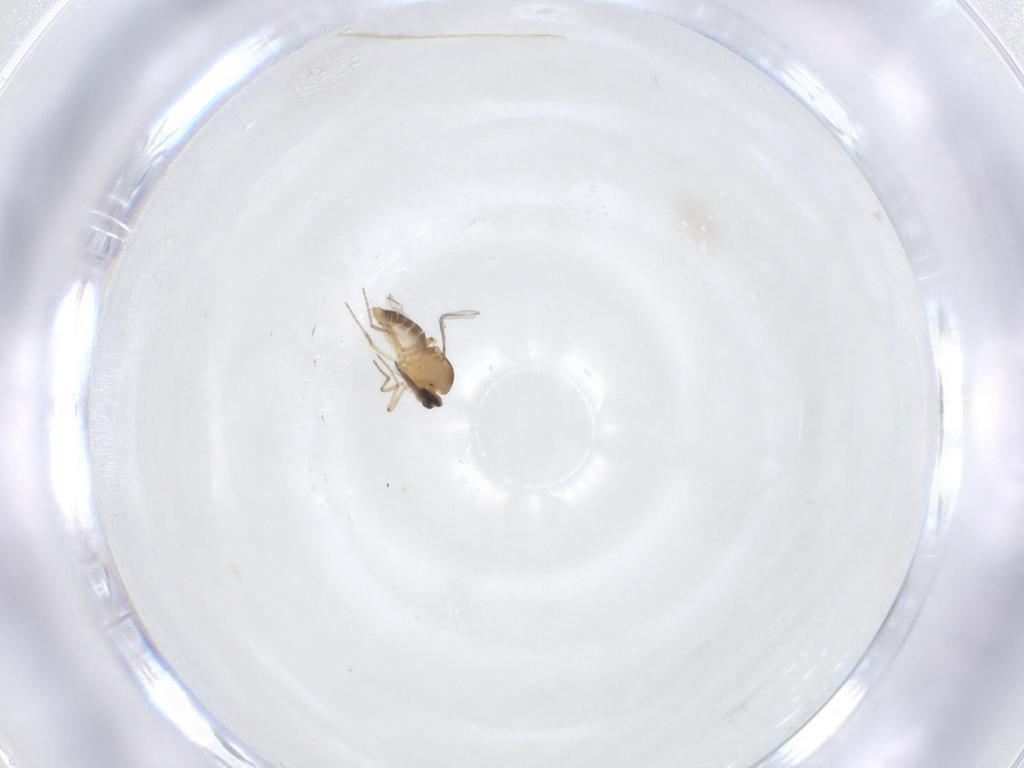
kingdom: Animalia
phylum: Arthropoda
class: Insecta
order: Diptera
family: Ceratopogonidae
